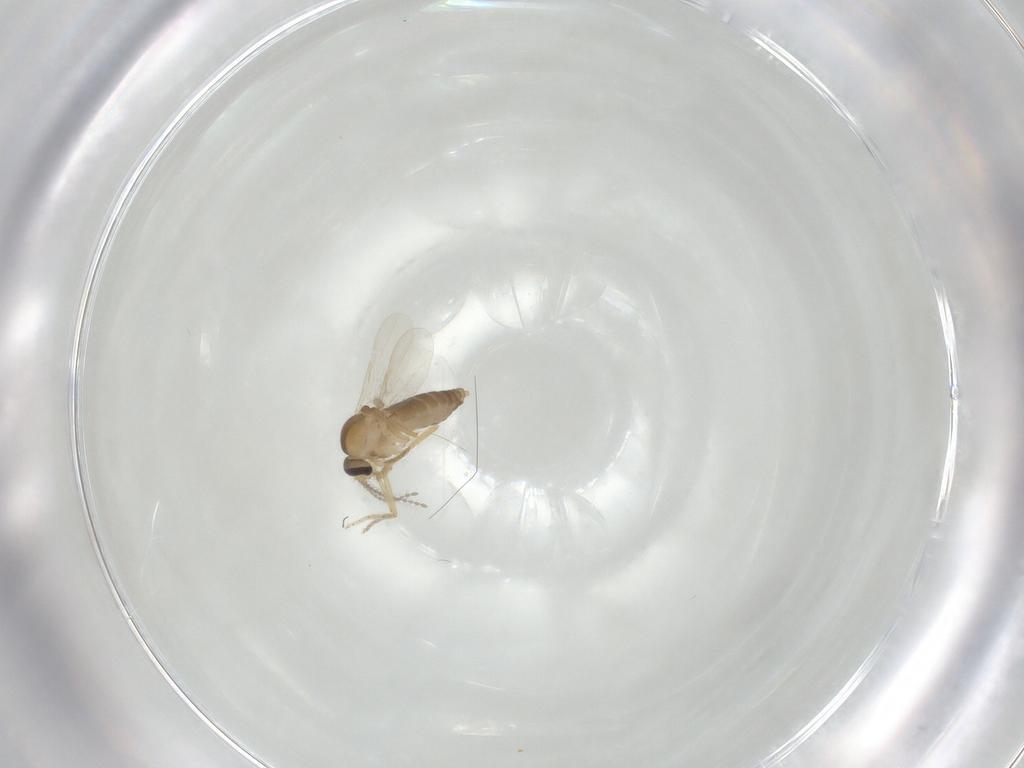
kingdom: Animalia
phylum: Arthropoda
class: Insecta
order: Diptera
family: Ceratopogonidae
